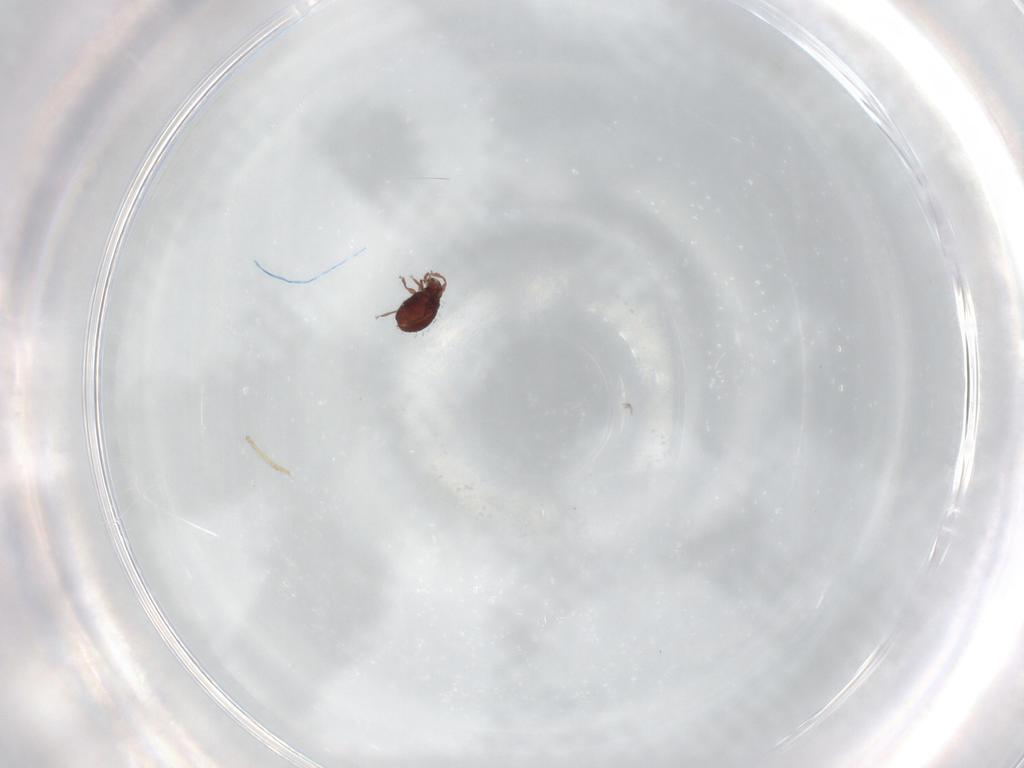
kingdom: Animalia
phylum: Arthropoda
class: Arachnida
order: Sarcoptiformes
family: Scheloribatidae
